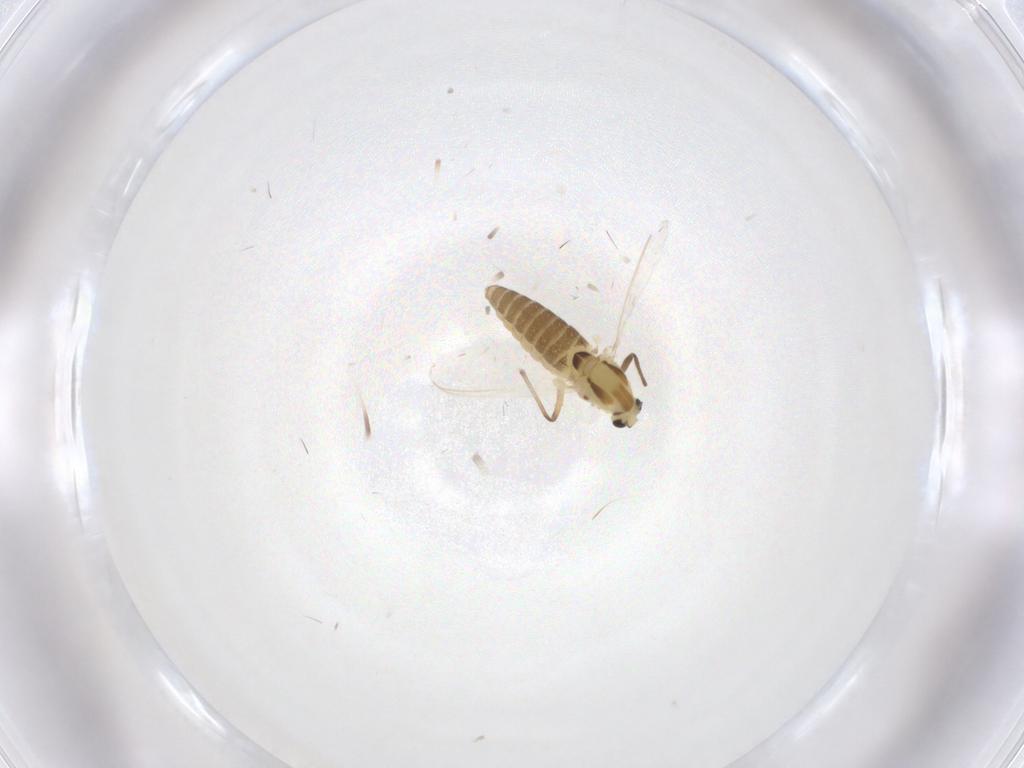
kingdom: Animalia
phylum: Arthropoda
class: Insecta
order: Diptera
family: Chironomidae
